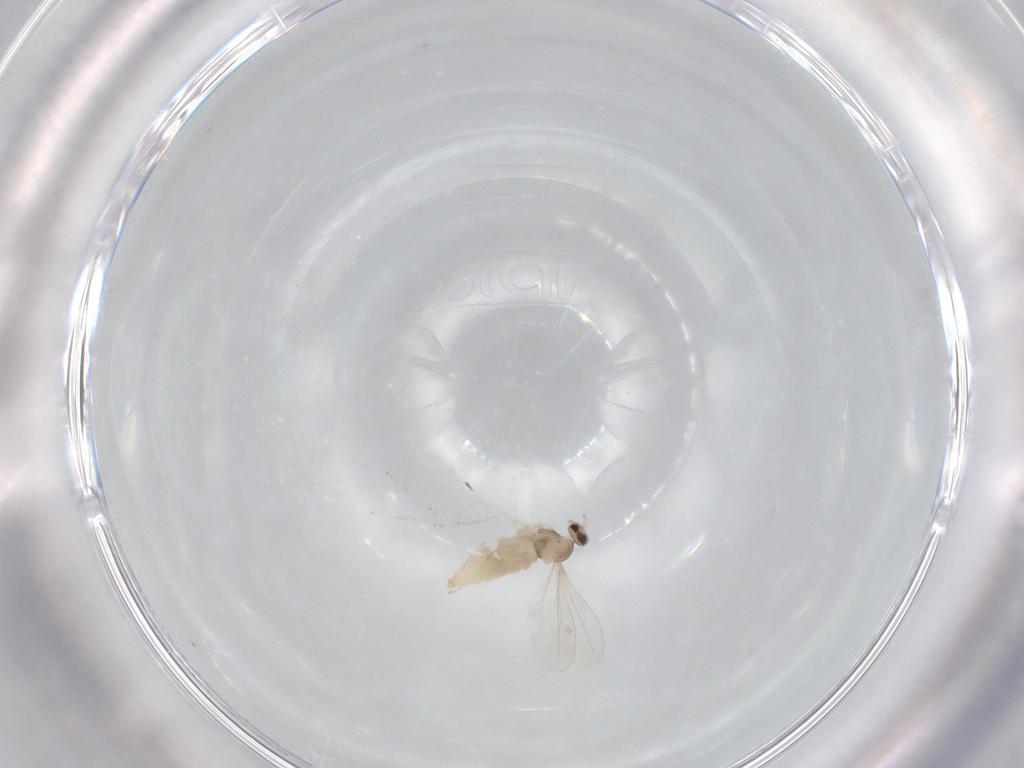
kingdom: Animalia
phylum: Arthropoda
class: Insecta
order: Diptera
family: Cecidomyiidae
